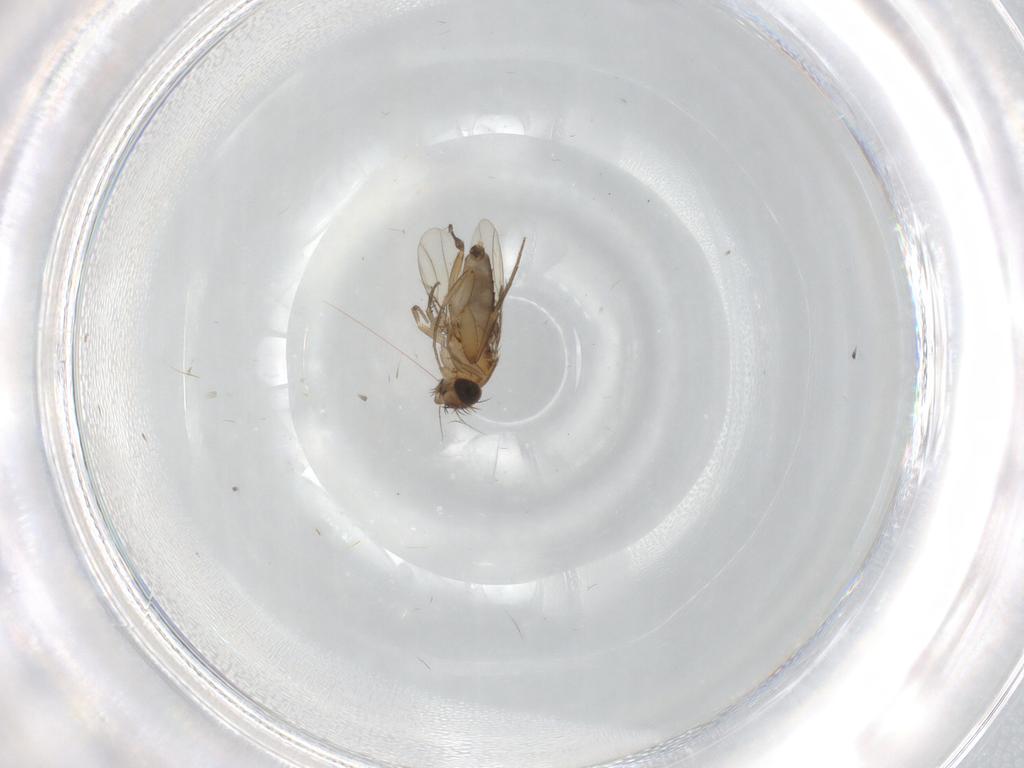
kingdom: Animalia
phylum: Arthropoda
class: Insecta
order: Diptera
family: Phoridae
